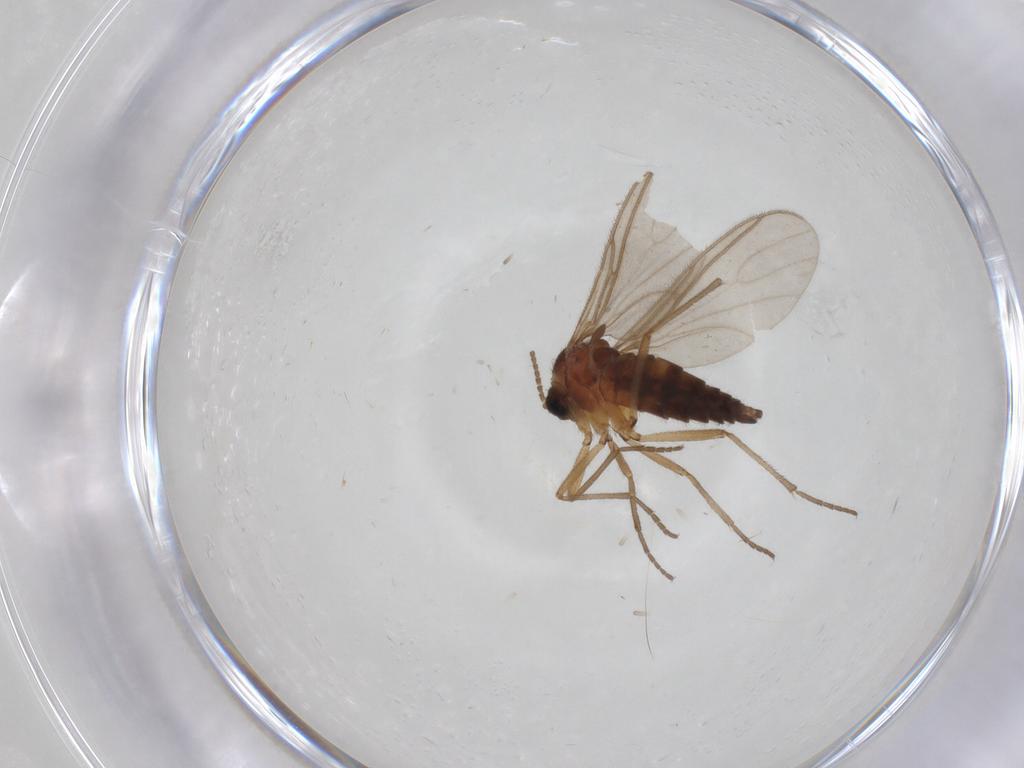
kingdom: Animalia
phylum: Arthropoda
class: Insecta
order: Diptera
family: Sciaridae
